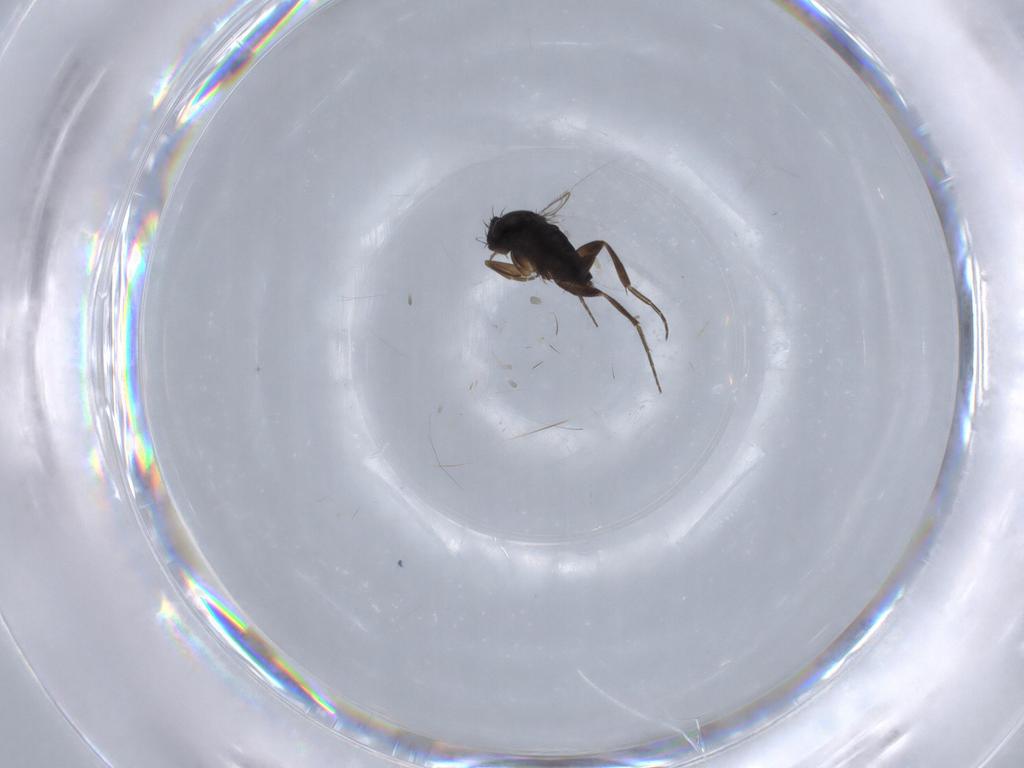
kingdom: Animalia
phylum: Arthropoda
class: Insecta
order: Diptera
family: Phoridae
